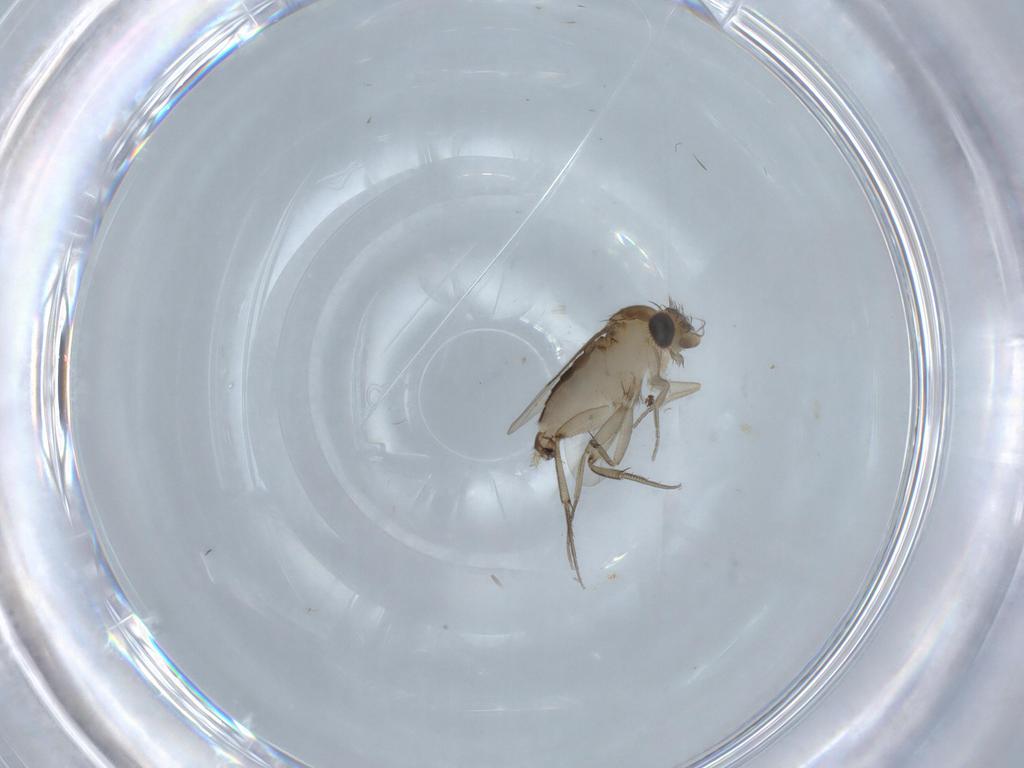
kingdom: Animalia
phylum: Arthropoda
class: Insecta
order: Diptera
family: Phoridae
